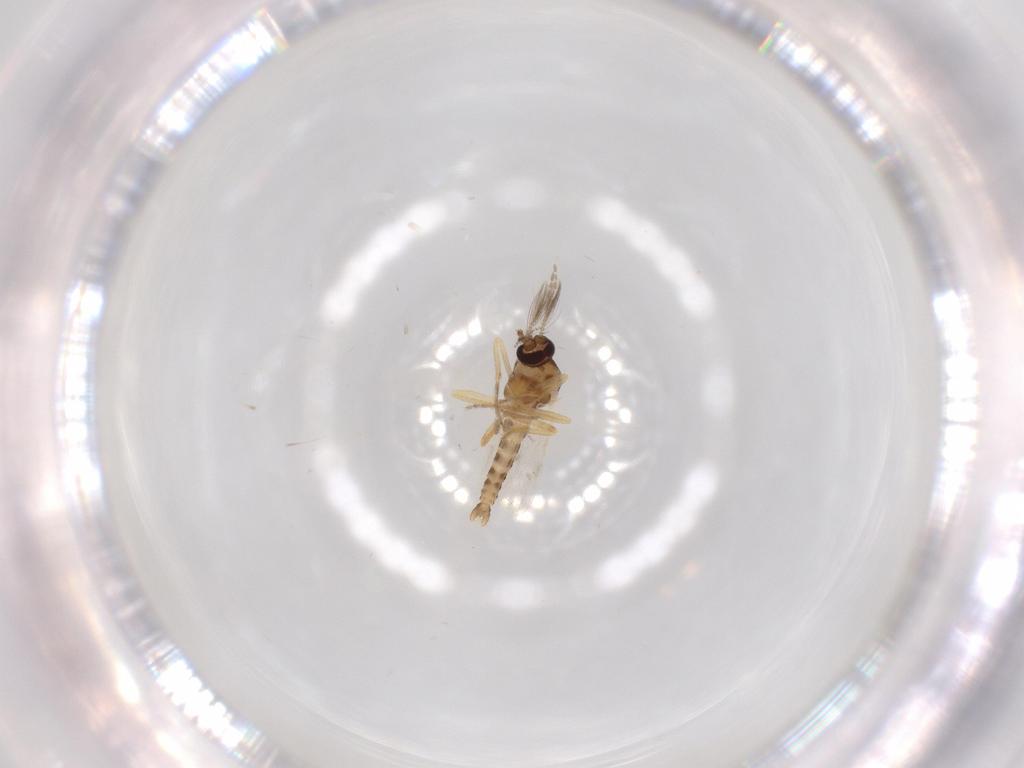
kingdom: Animalia
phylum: Arthropoda
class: Insecta
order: Diptera
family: Ceratopogonidae
